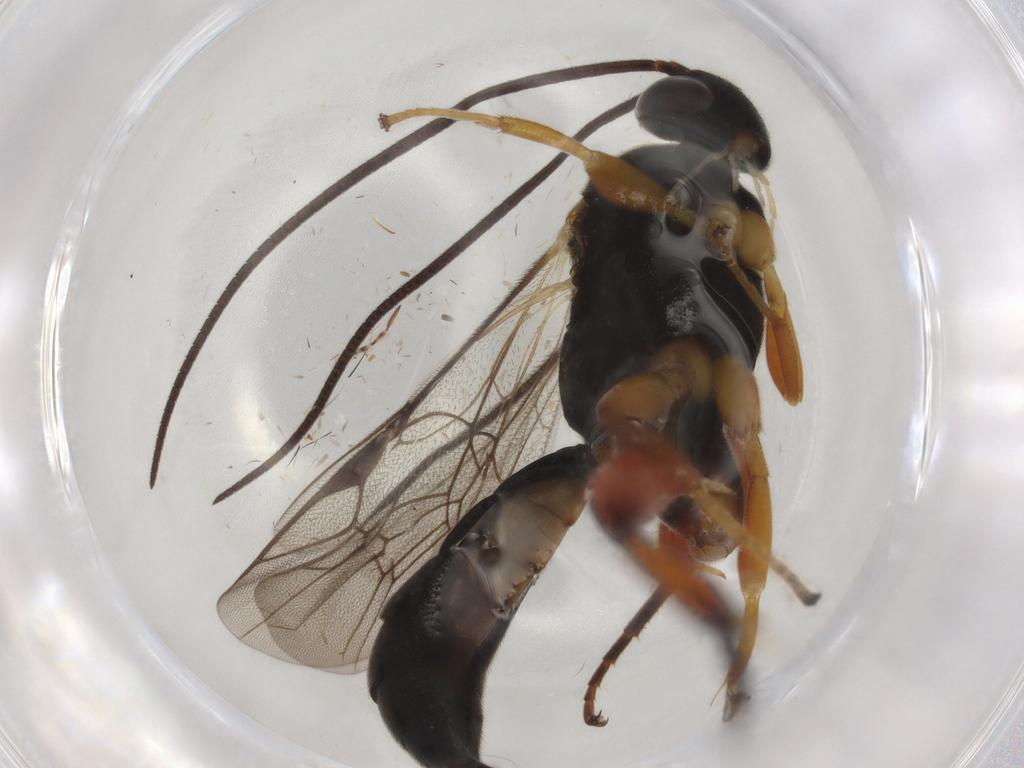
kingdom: Animalia
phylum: Arthropoda
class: Insecta
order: Hymenoptera
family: Ichneumonidae
